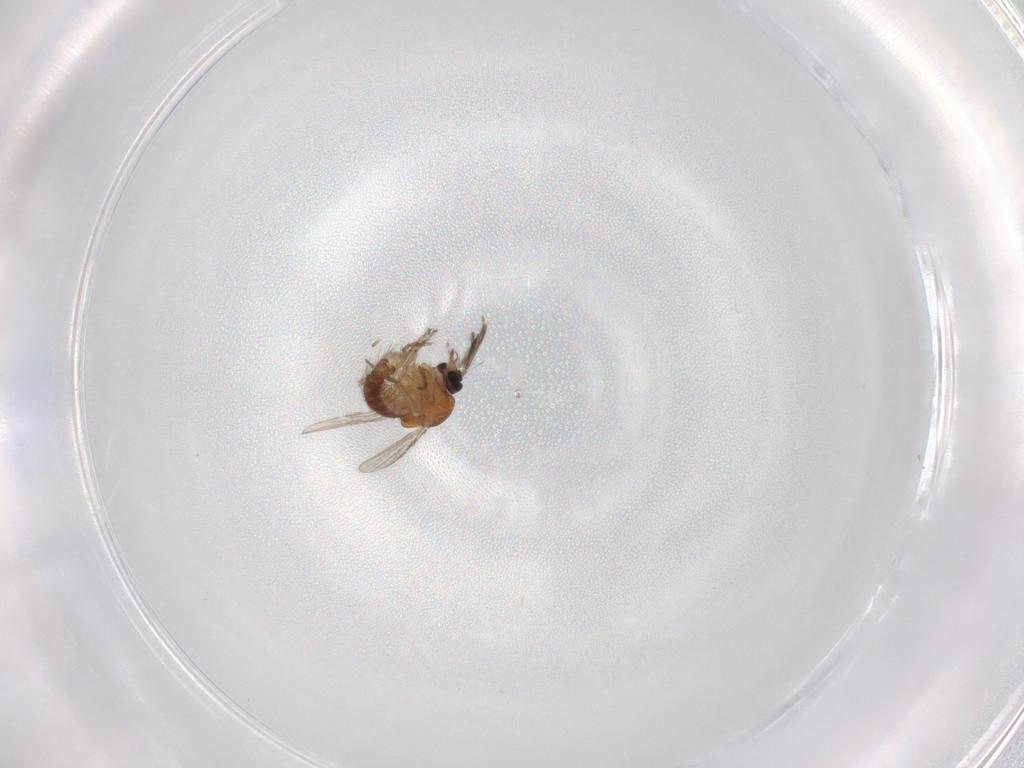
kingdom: Animalia
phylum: Arthropoda
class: Insecta
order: Diptera
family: Ceratopogonidae
